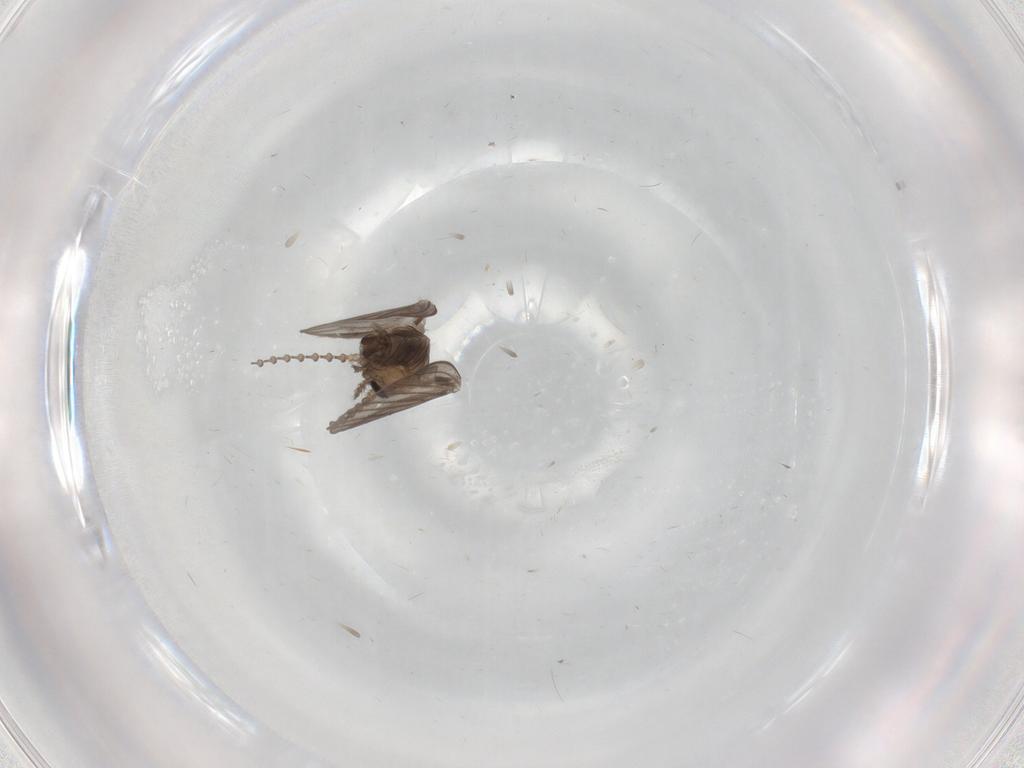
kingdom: Animalia
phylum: Arthropoda
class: Insecta
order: Diptera
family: Psychodidae
